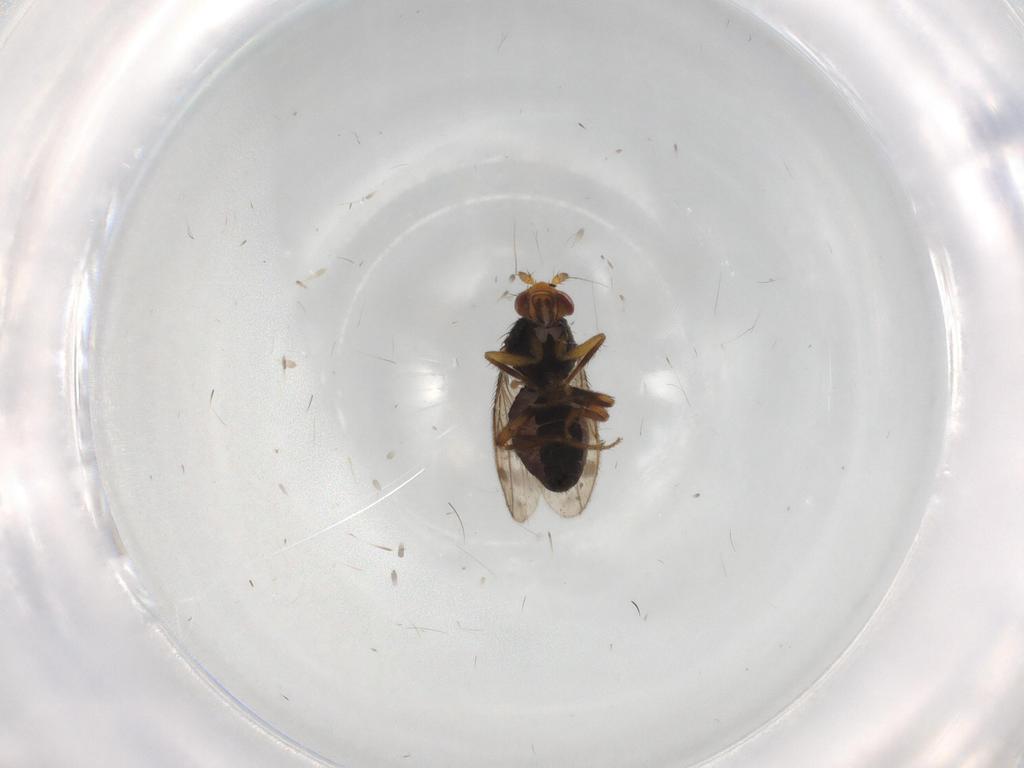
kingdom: Animalia
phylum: Arthropoda
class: Insecta
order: Diptera
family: Sphaeroceridae
